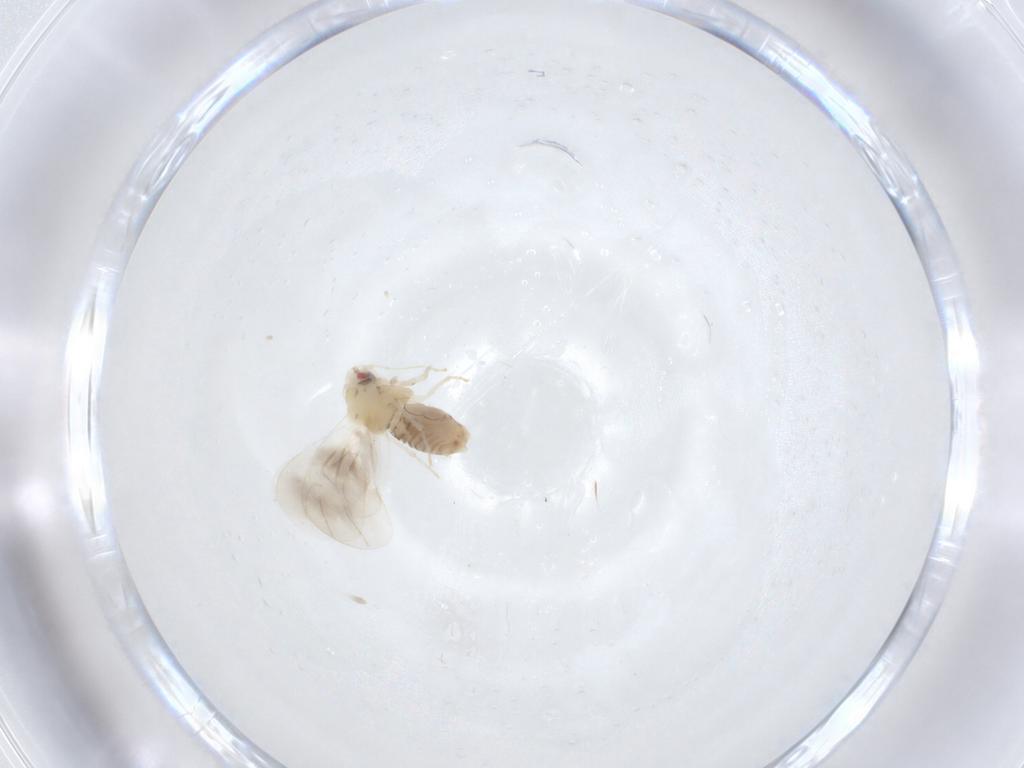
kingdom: Animalia
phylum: Arthropoda
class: Insecta
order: Hemiptera
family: Aleyrodidae
